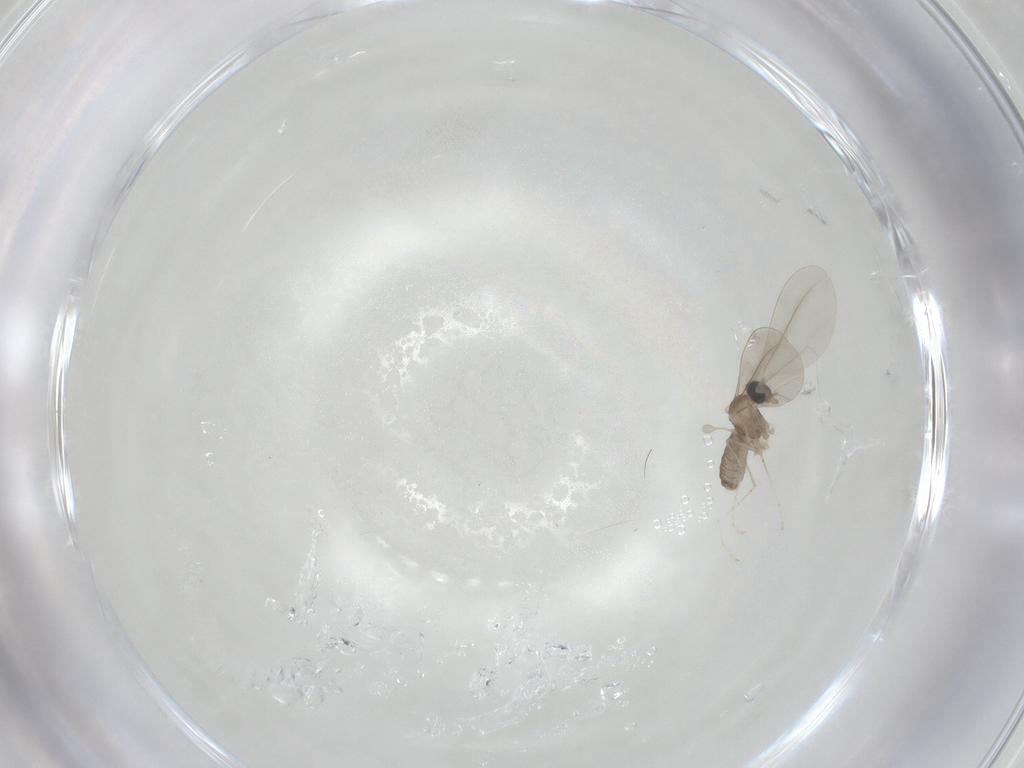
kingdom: Animalia
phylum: Arthropoda
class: Insecta
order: Diptera
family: Cecidomyiidae
